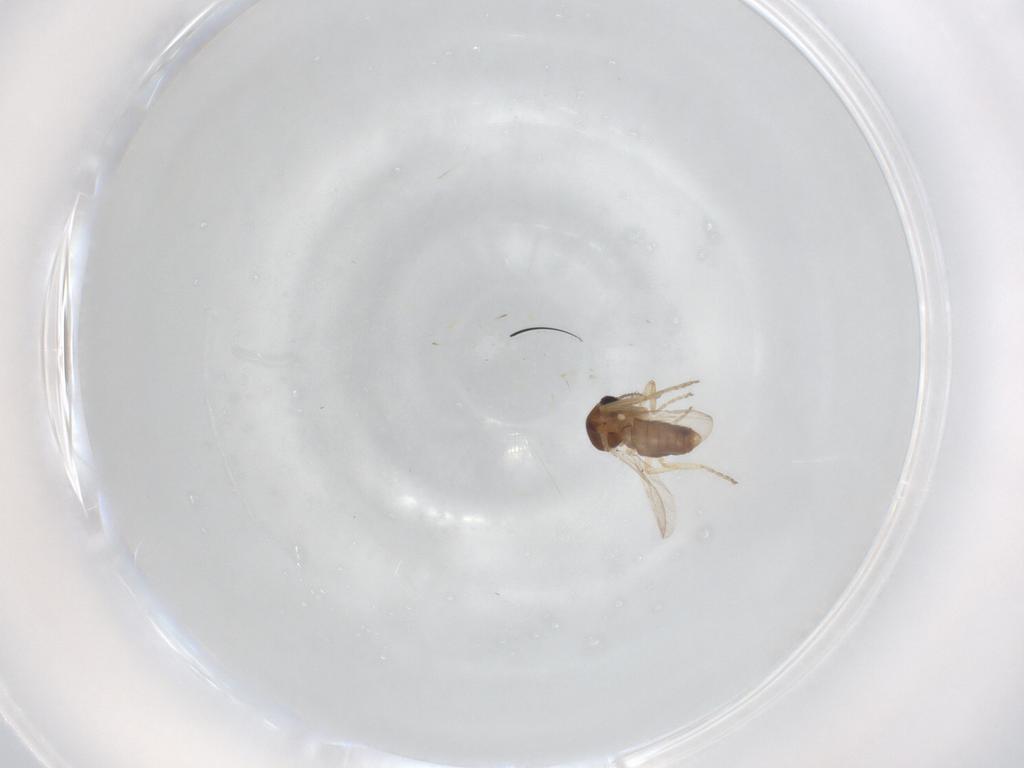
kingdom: Animalia
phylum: Arthropoda
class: Insecta
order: Diptera
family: Ceratopogonidae
